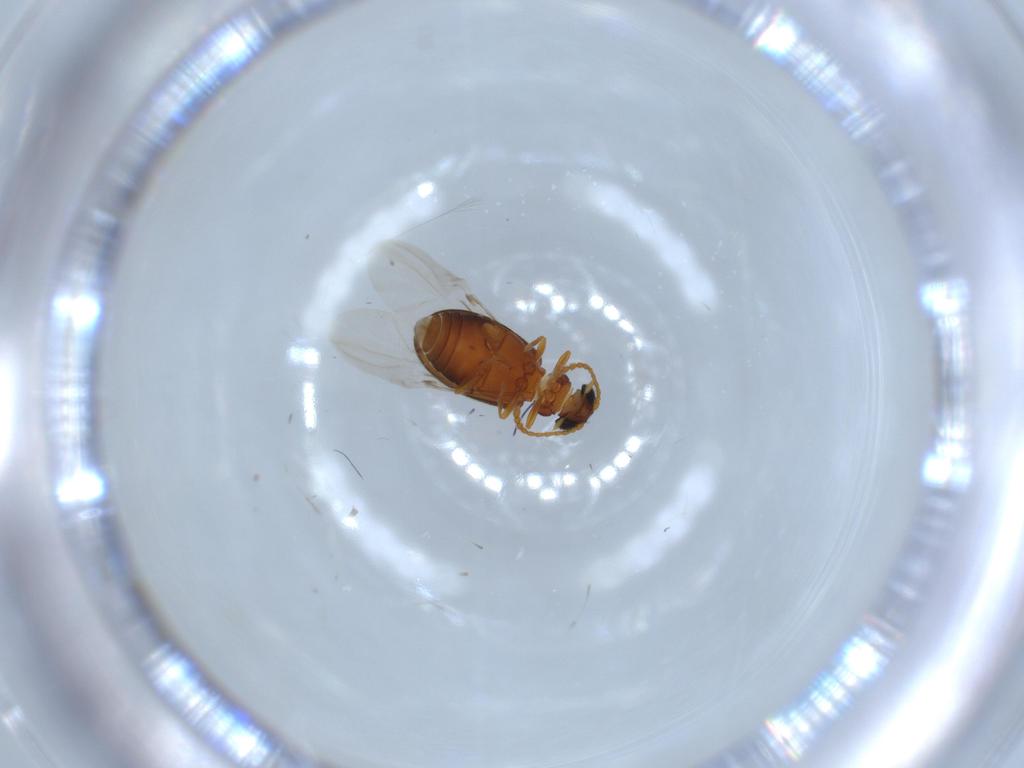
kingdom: Animalia
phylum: Arthropoda
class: Insecta
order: Coleoptera
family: Aderidae
